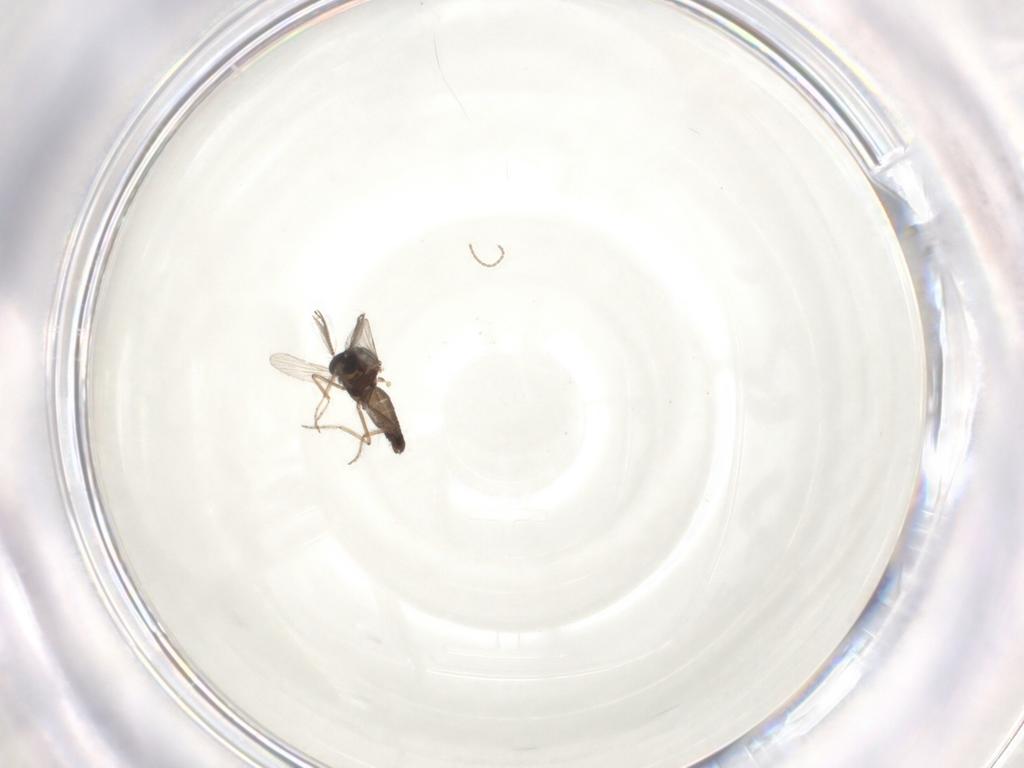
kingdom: Animalia
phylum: Arthropoda
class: Insecta
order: Diptera
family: Ceratopogonidae
